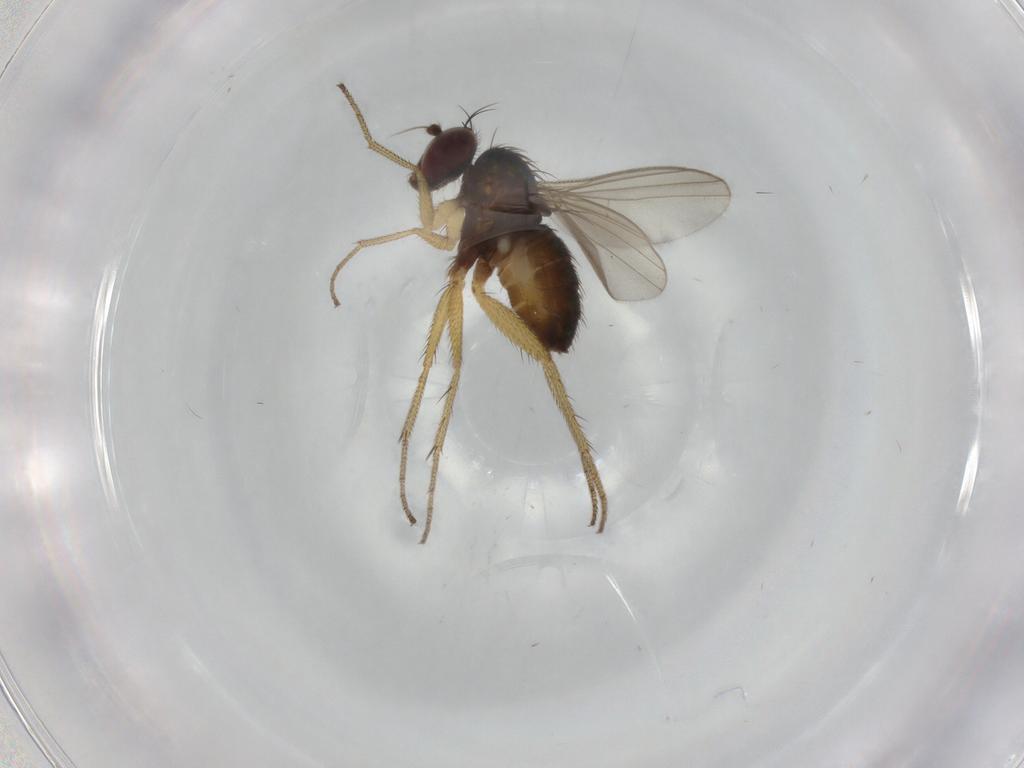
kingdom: Animalia
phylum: Arthropoda
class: Insecta
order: Diptera
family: Dolichopodidae
